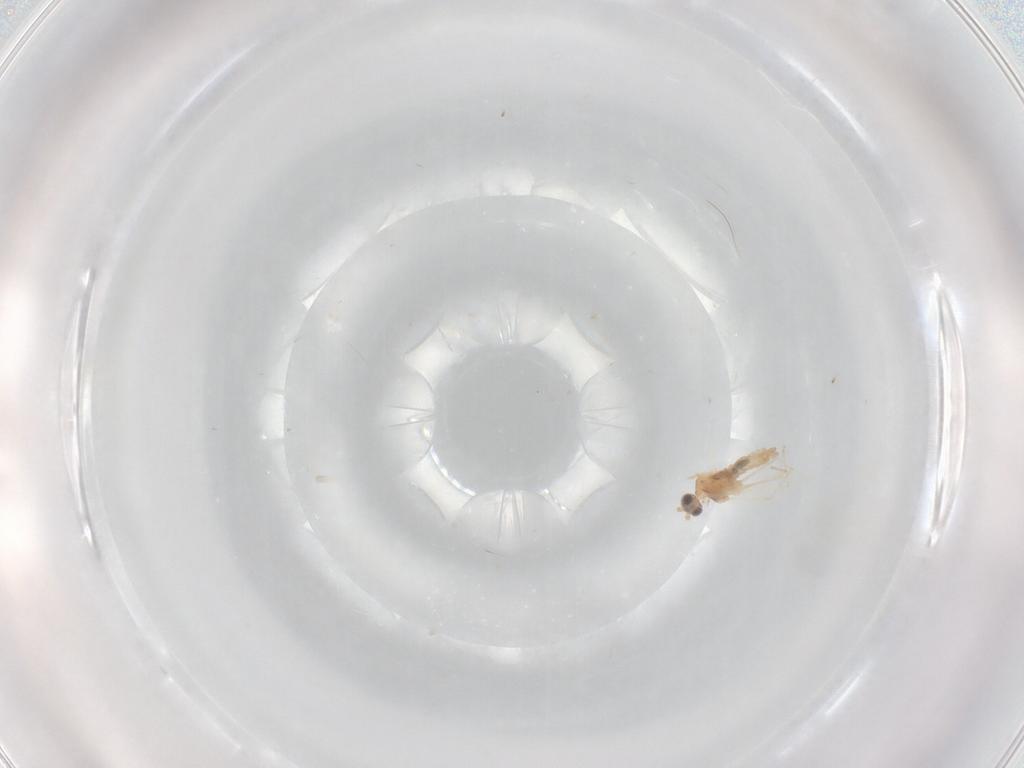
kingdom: Animalia
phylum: Arthropoda
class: Insecta
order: Diptera
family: Cecidomyiidae
